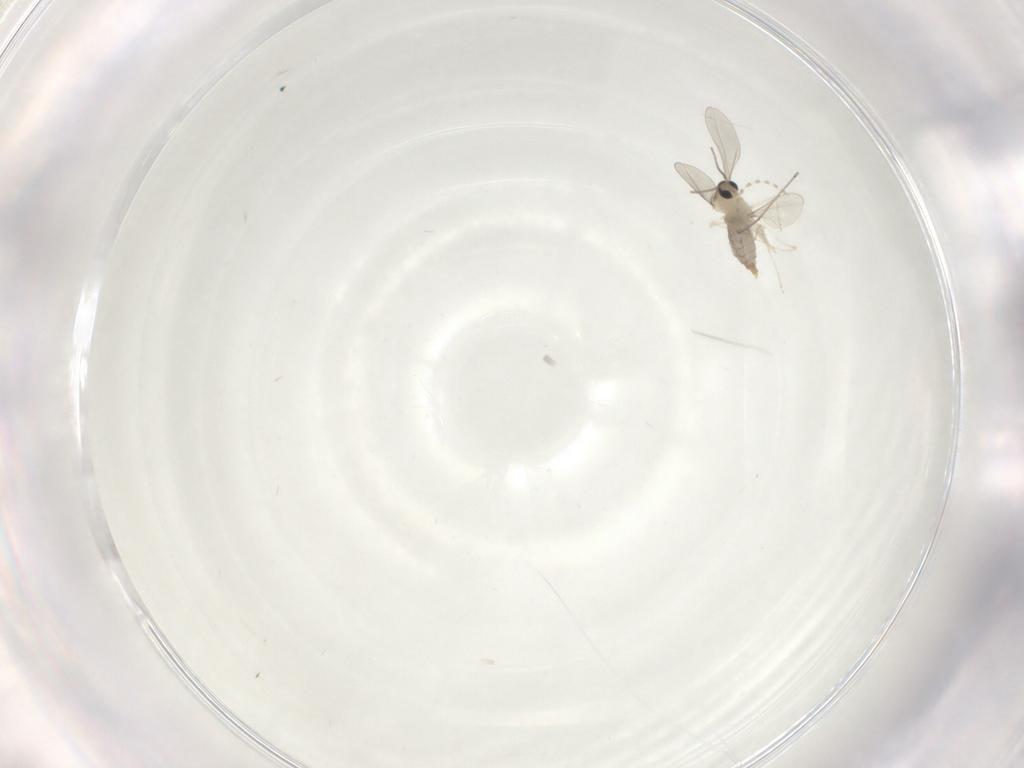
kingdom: Animalia
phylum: Arthropoda
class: Insecta
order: Diptera
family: Cecidomyiidae
